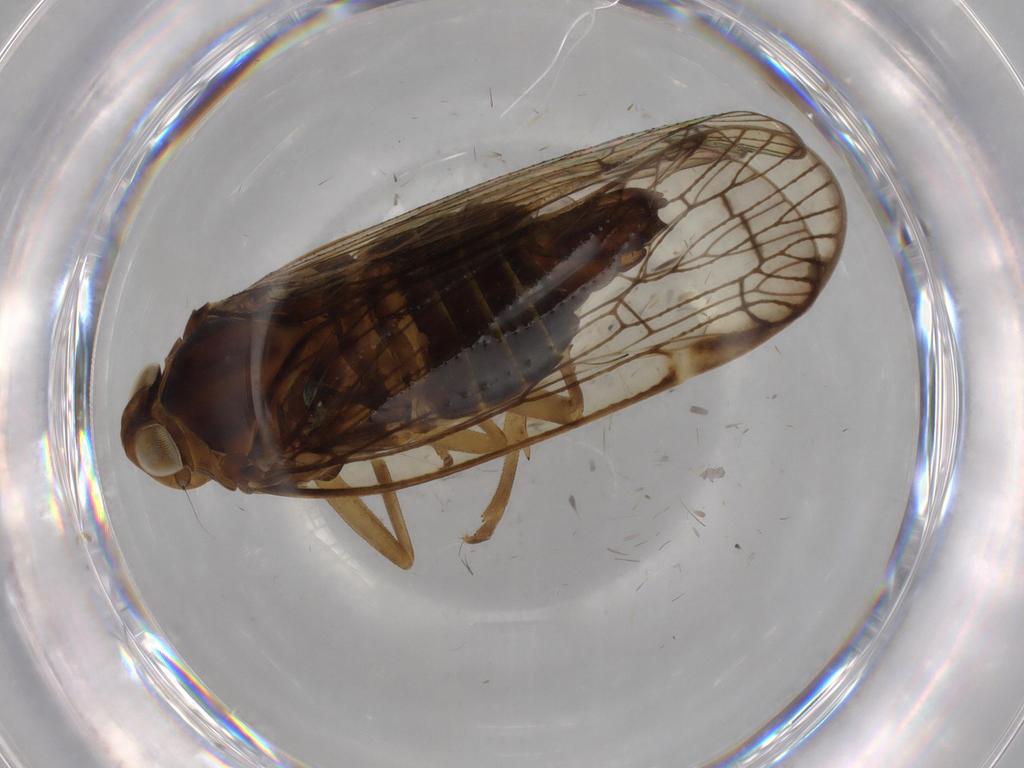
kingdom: Animalia
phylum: Arthropoda
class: Insecta
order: Hemiptera
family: Cixiidae
